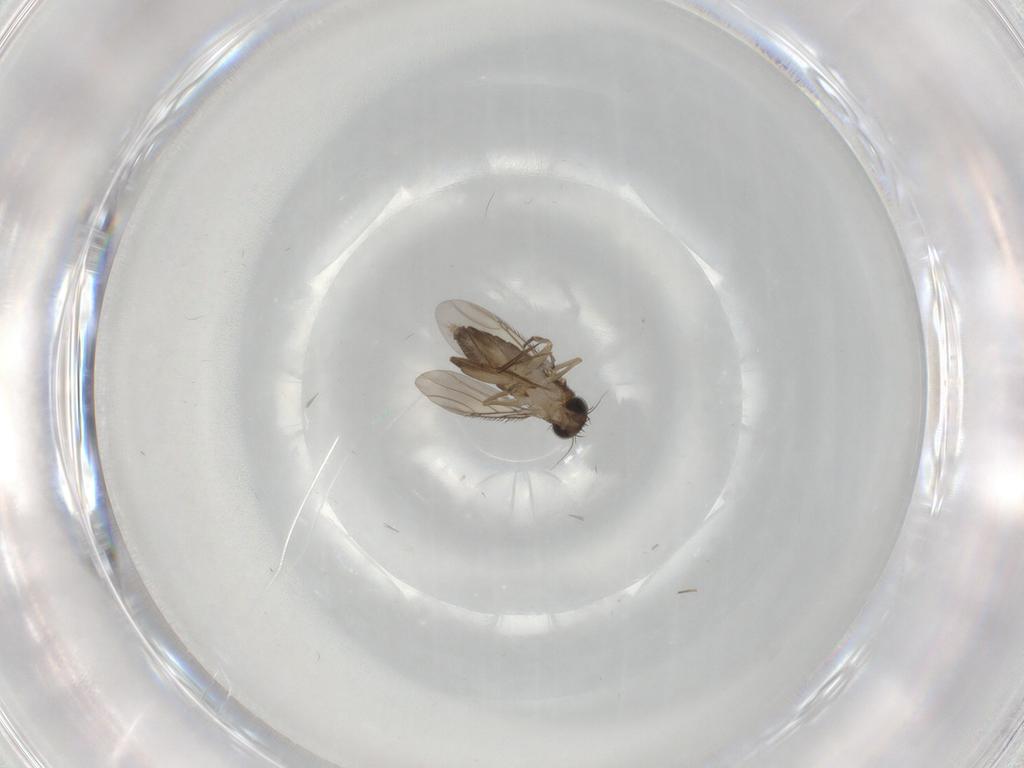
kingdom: Animalia
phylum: Arthropoda
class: Insecta
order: Diptera
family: Phoridae
